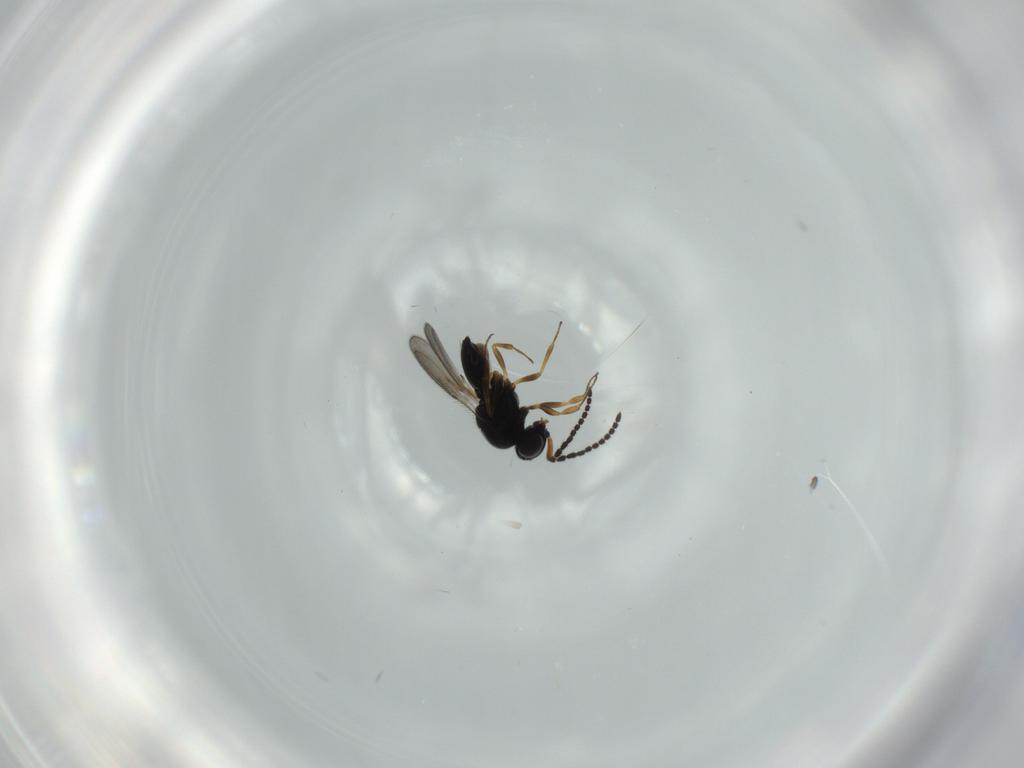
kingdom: Animalia
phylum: Arthropoda
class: Insecta
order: Hymenoptera
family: Scelionidae
